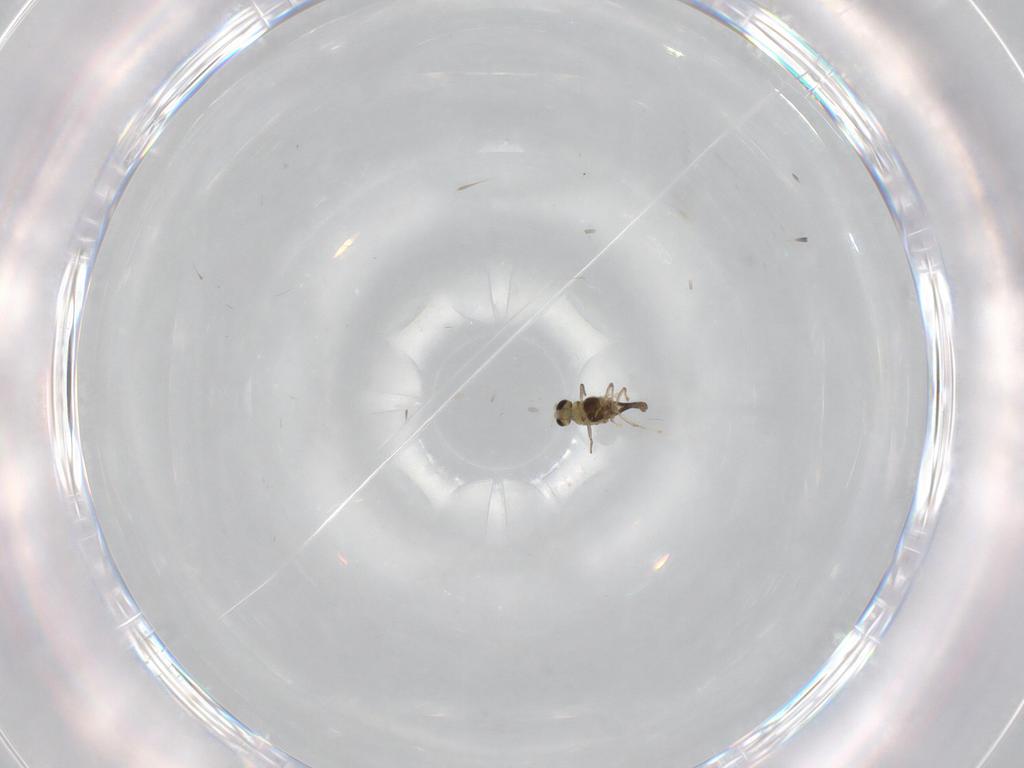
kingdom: Animalia
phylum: Arthropoda
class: Insecta
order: Diptera
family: Chironomidae
